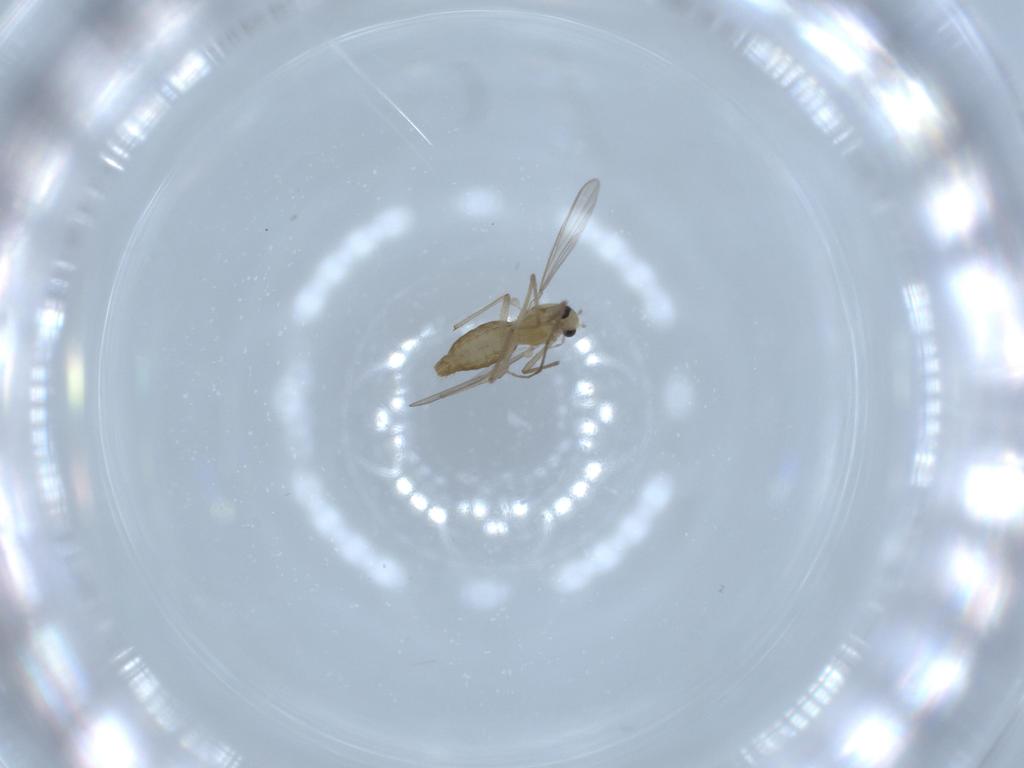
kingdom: Animalia
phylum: Arthropoda
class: Insecta
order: Diptera
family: Chironomidae
